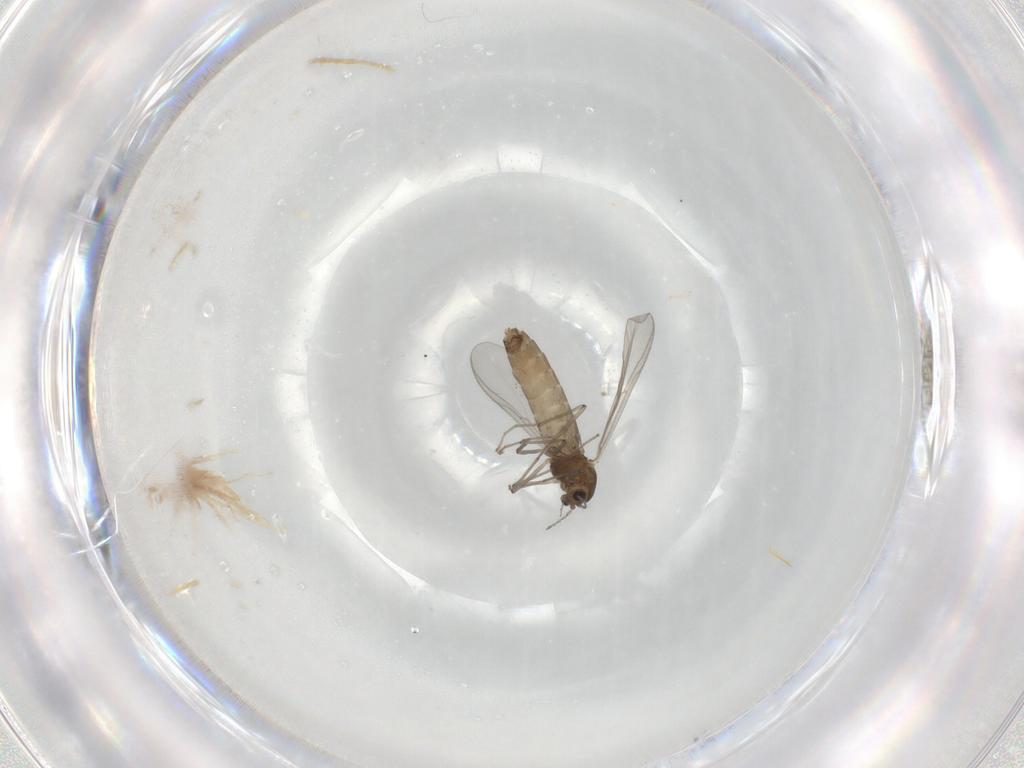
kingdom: Animalia
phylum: Arthropoda
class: Insecta
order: Diptera
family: Chironomidae
